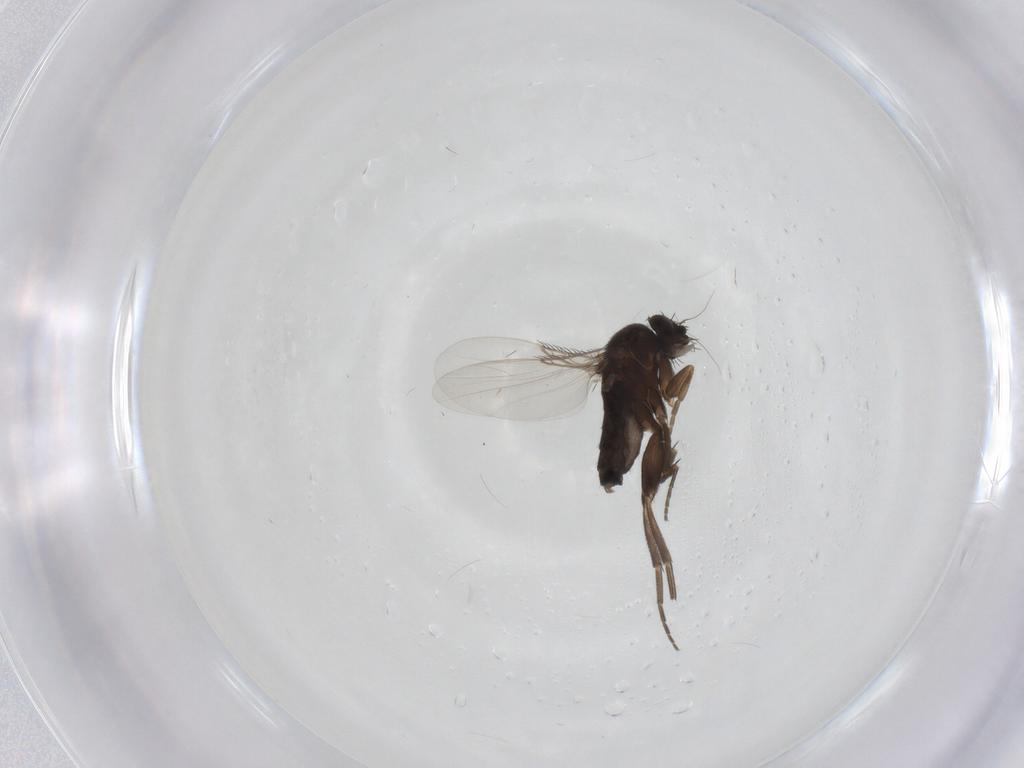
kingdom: Animalia
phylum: Arthropoda
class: Insecta
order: Diptera
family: Phoridae
